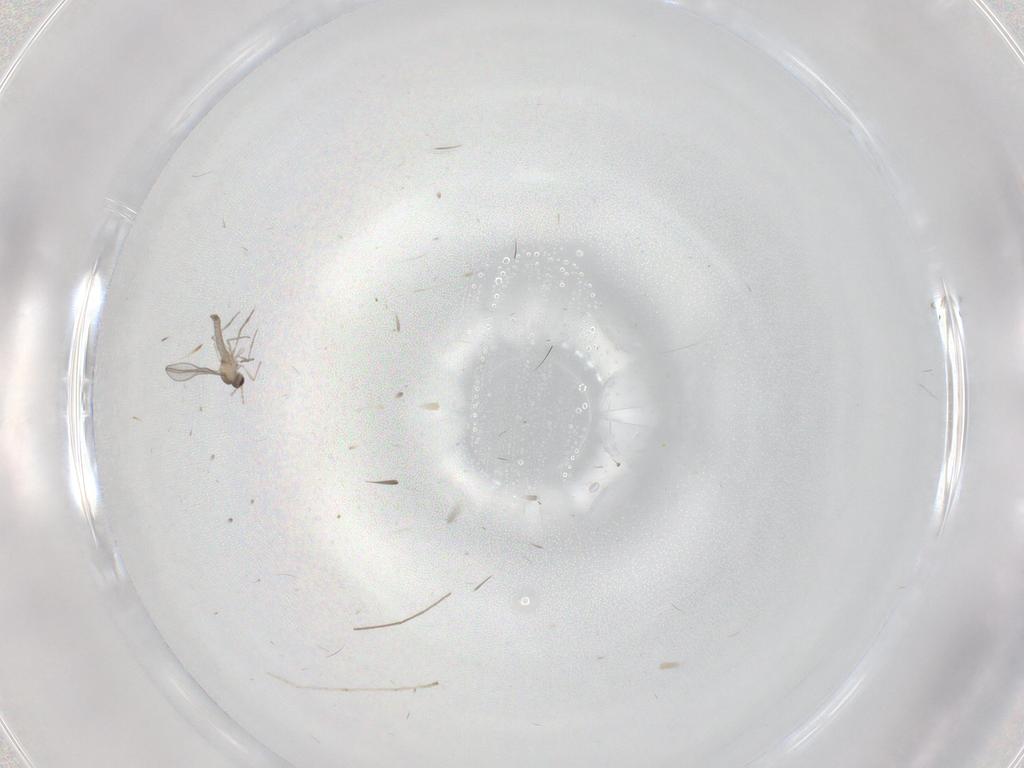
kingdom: Animalia
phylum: Arthropoda
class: Insecta
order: Diptera
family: Cecidomyiidae
